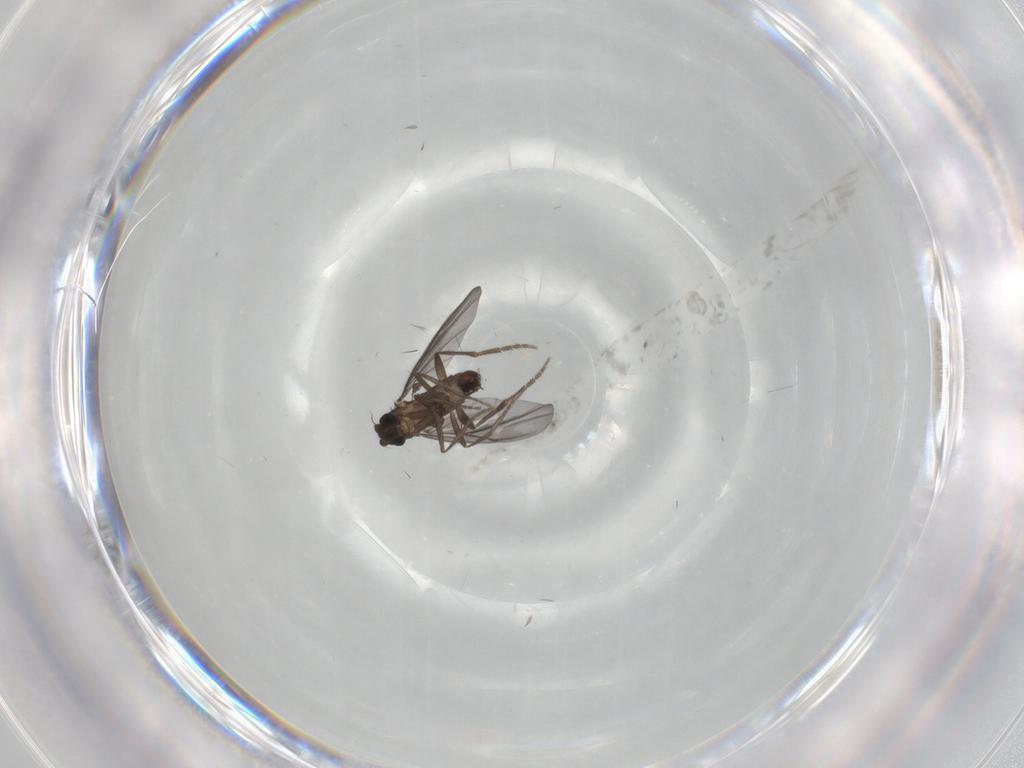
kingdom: Animalia
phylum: Arthropoda
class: Insecta
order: Diptera
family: Phoridae
